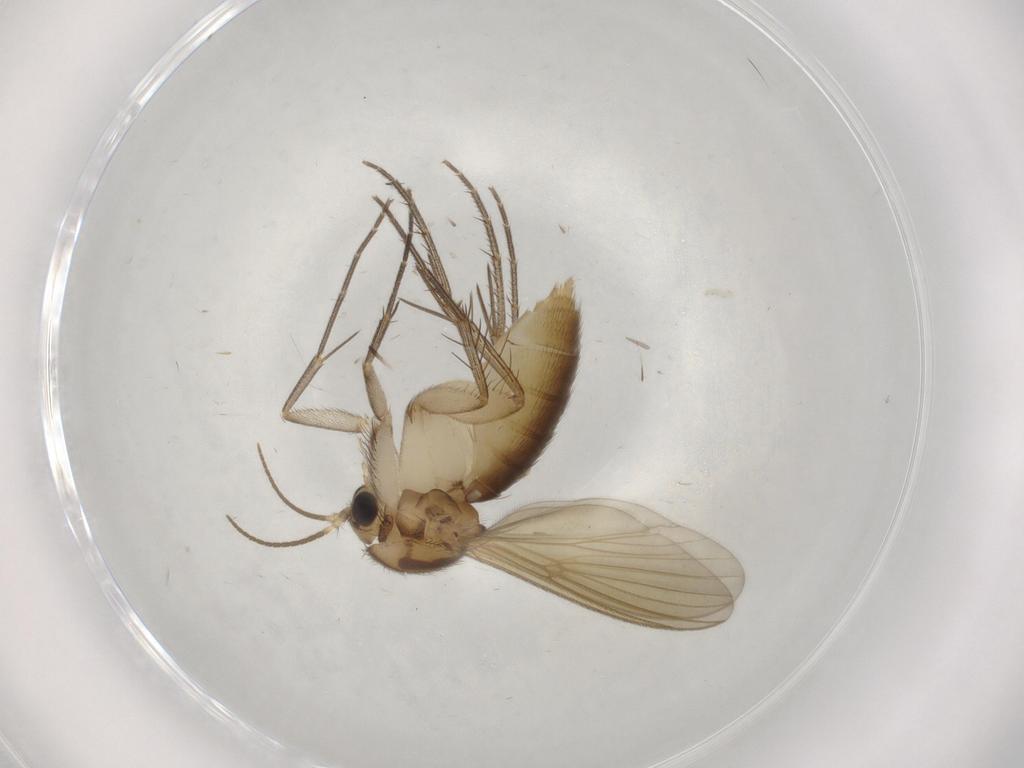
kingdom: Animalia
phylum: Arthropoda
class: Insecta
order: Diptera
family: Mycetophilidae
